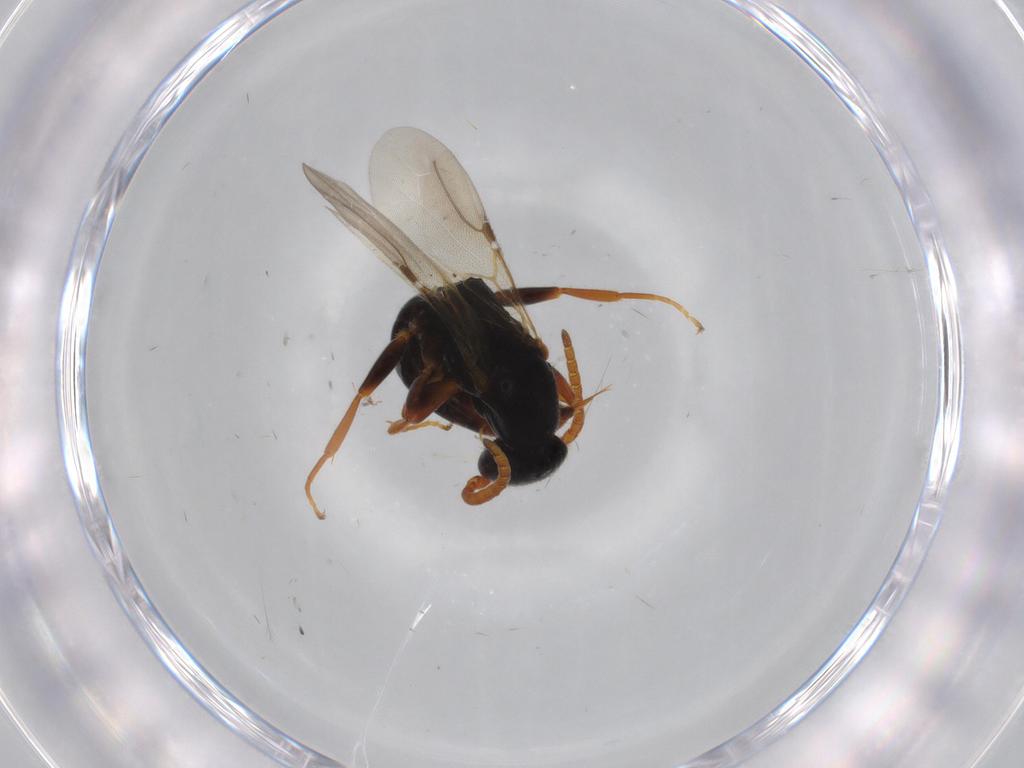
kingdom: Animalia
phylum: Arthropoda
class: Insecta
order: Hymenoptera
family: Bethylidae
